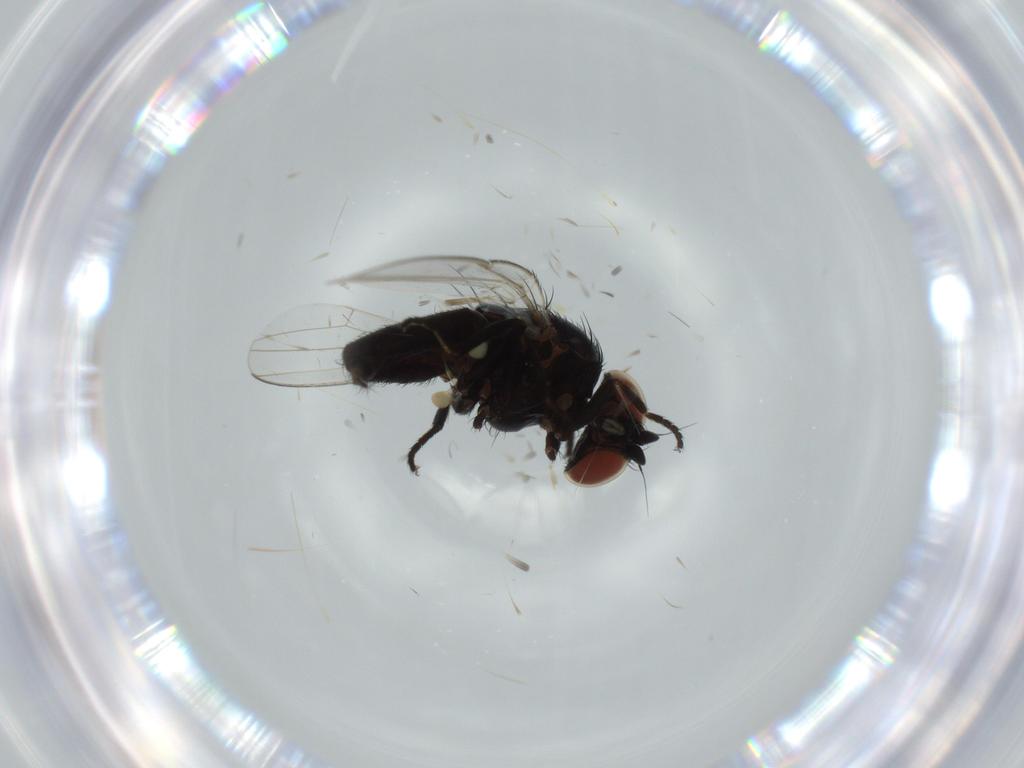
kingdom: Animalia
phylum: Arthropoda
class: Insecta
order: Diptera
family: Chloropidae
